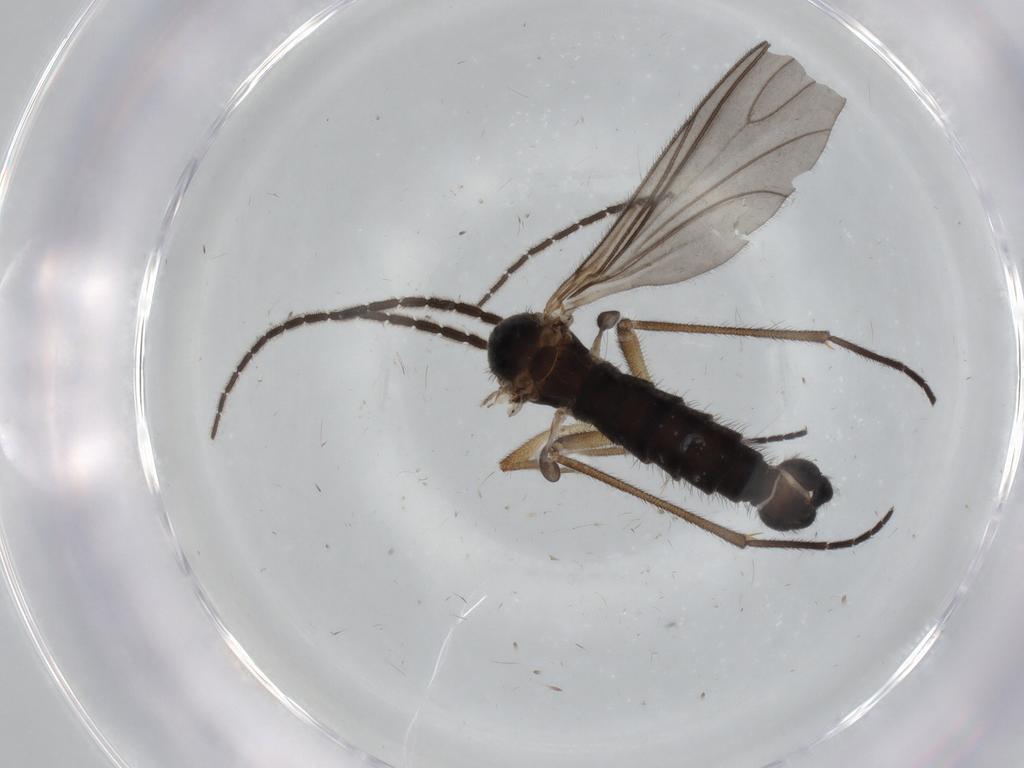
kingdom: Animalia
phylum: Arthropoda
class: Insecta
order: Diptera
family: Sciaridae
